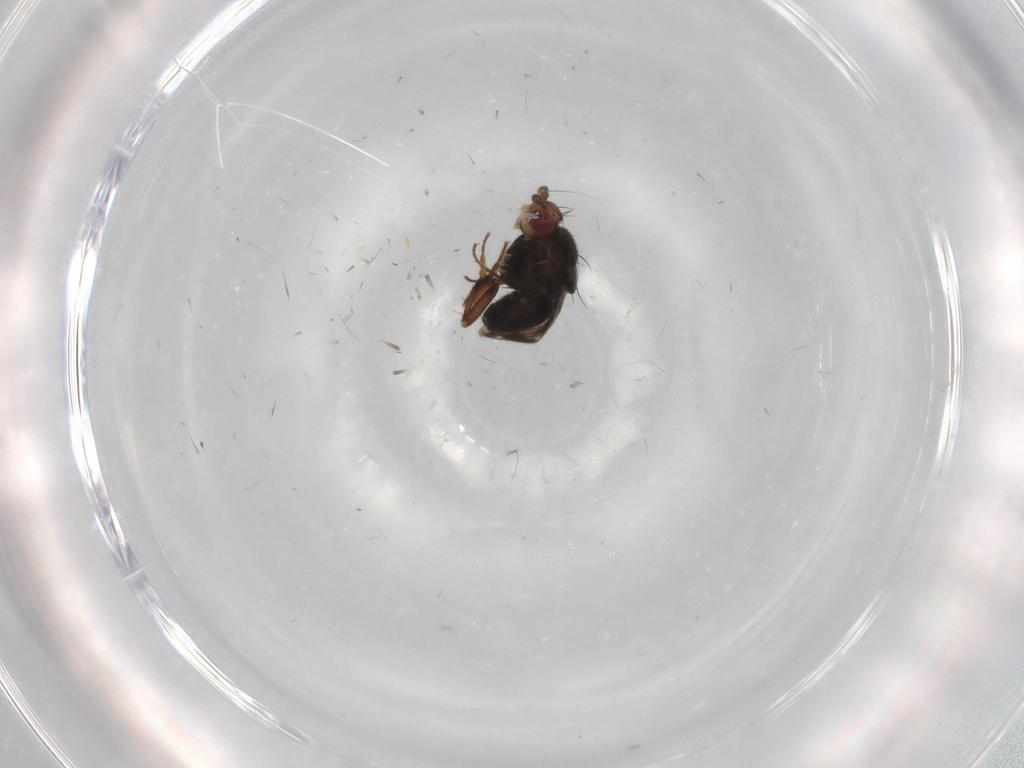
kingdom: Animalia
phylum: Arthropoda
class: Insecta
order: Diptera
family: Sphaeroceridae
